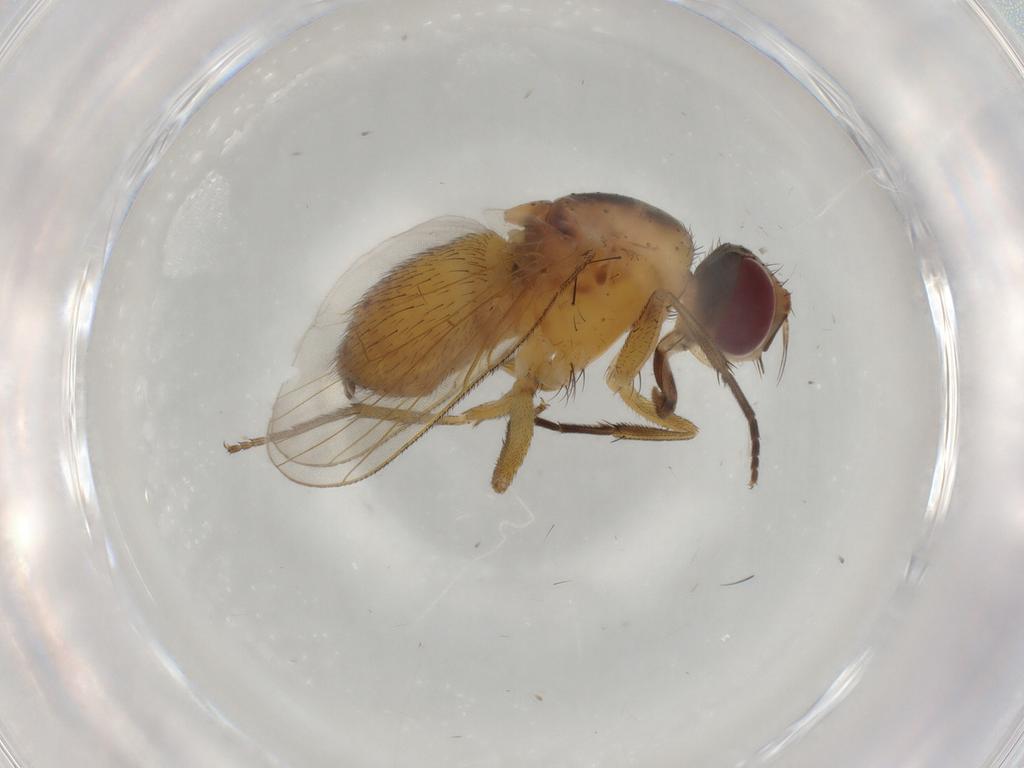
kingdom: Animalia
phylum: Arthropoda
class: Insecta
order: Diptera
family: Muscidae
